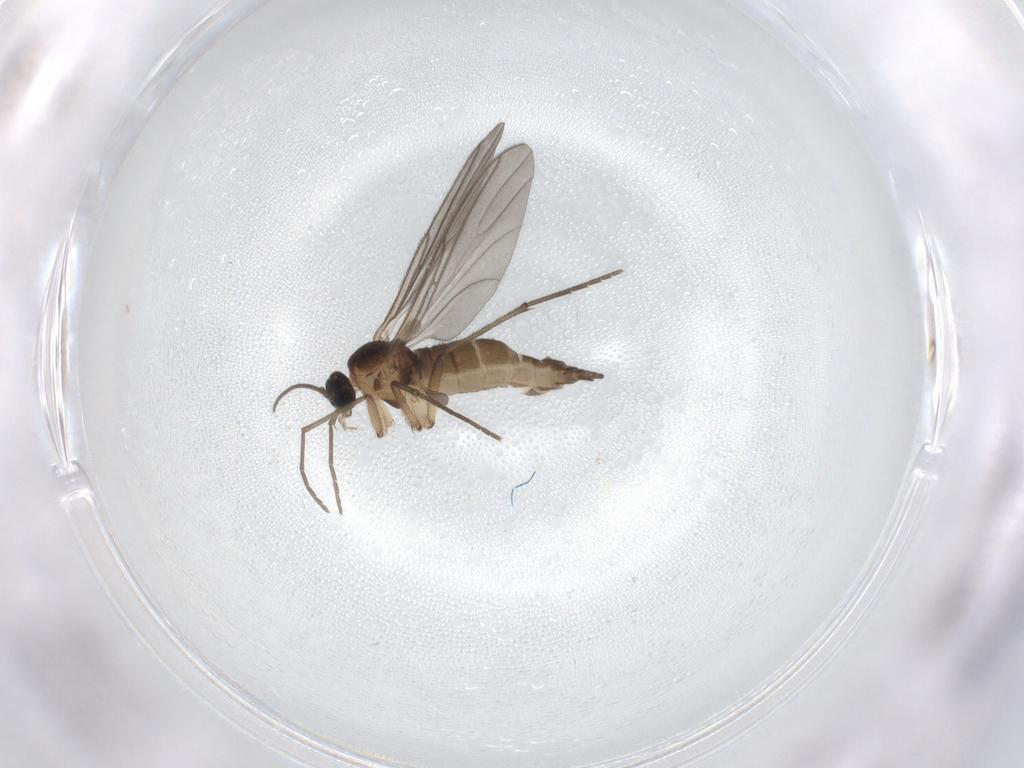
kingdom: Animalia
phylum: Arthropoda
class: Insecta
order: Diptera
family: Sciaridae
